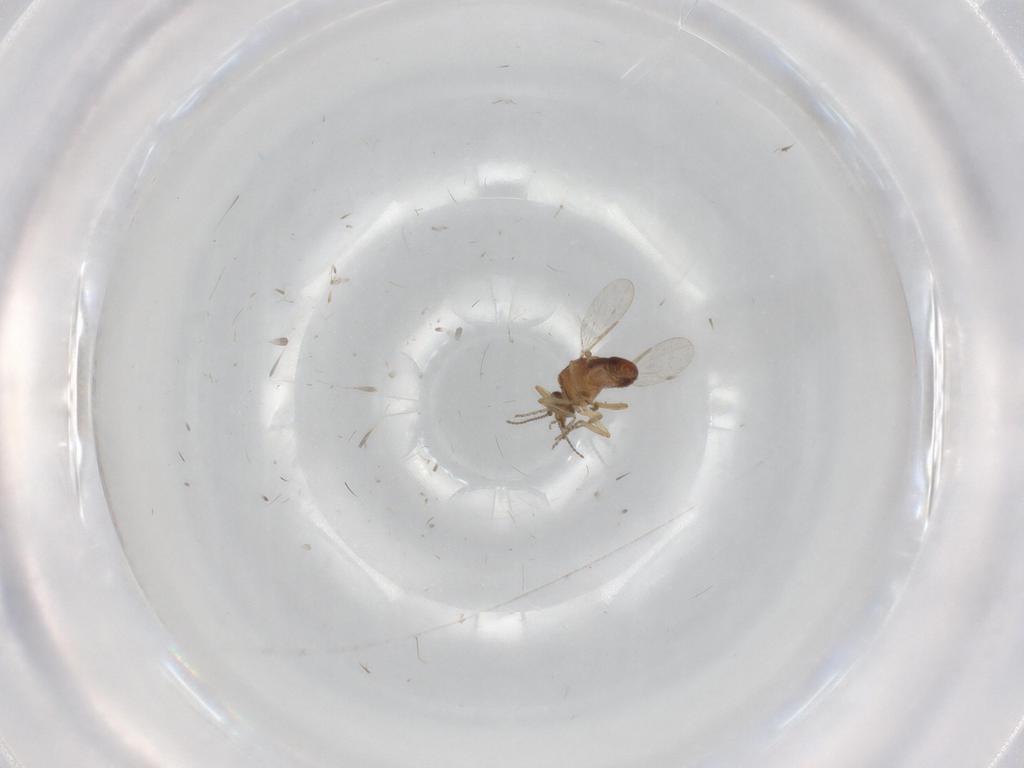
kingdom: Animalia
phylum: Arthropoda
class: Insecta
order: Diptera
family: Ceratopogonidae
